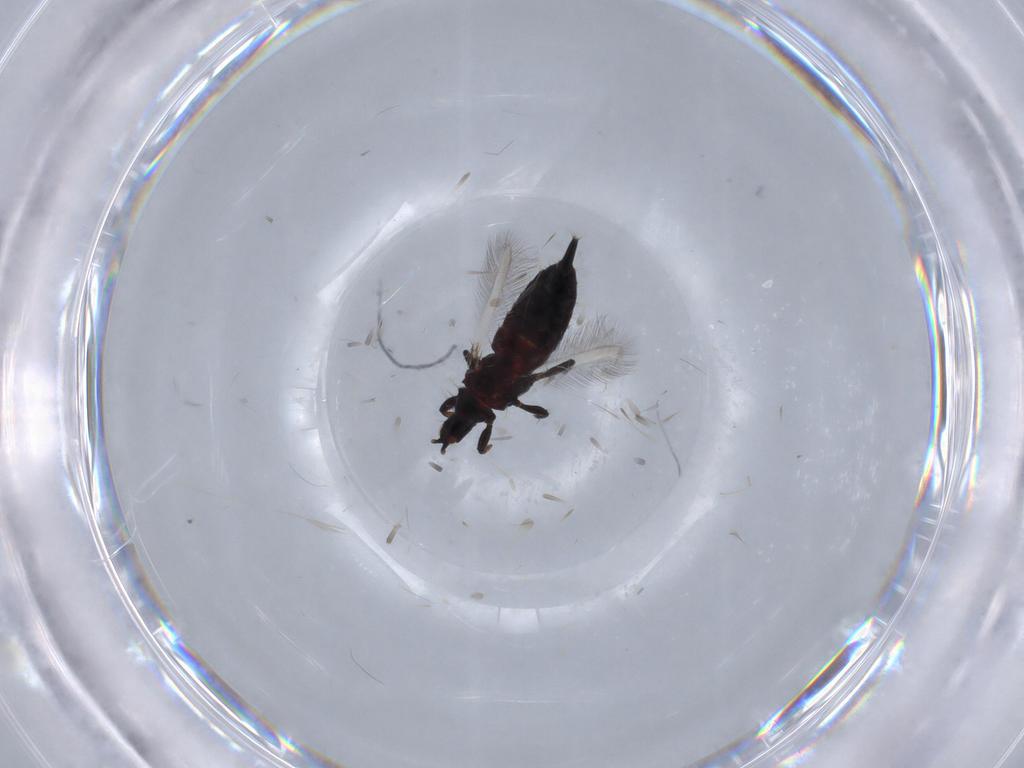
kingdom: Animalia
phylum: Arthropoda
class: Insecta
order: Thysanoptera
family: Phlaeothripidae
